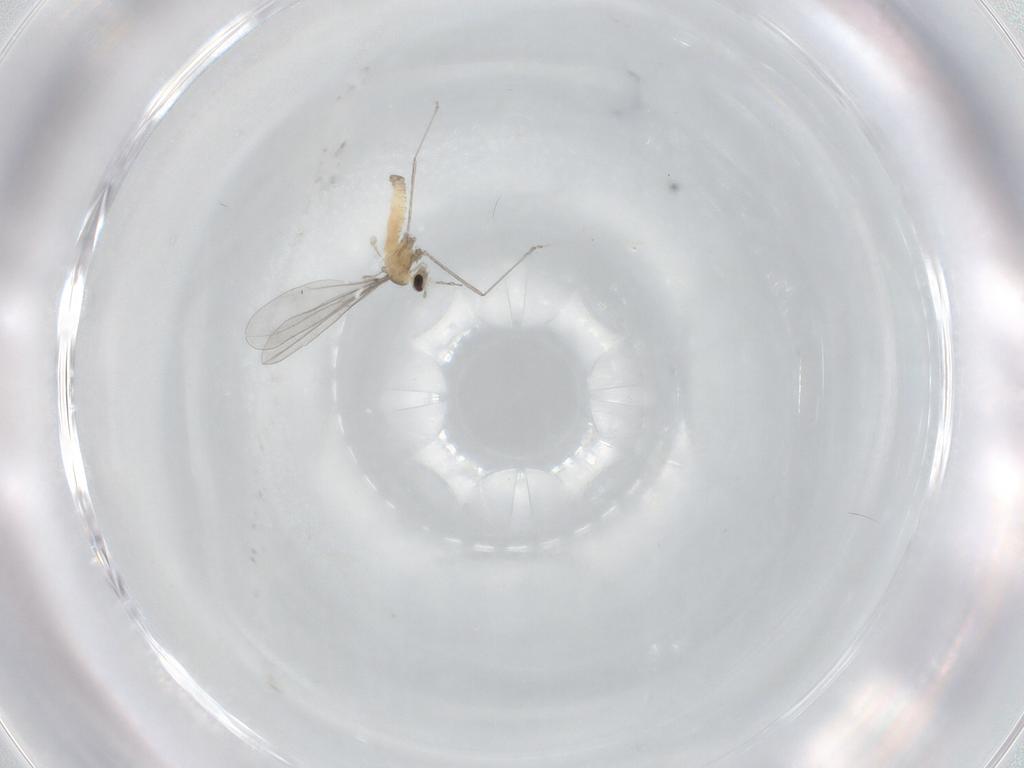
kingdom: Animalia
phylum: Arthropoda
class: Insecta
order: Diptera
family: Cecidomyiidae
